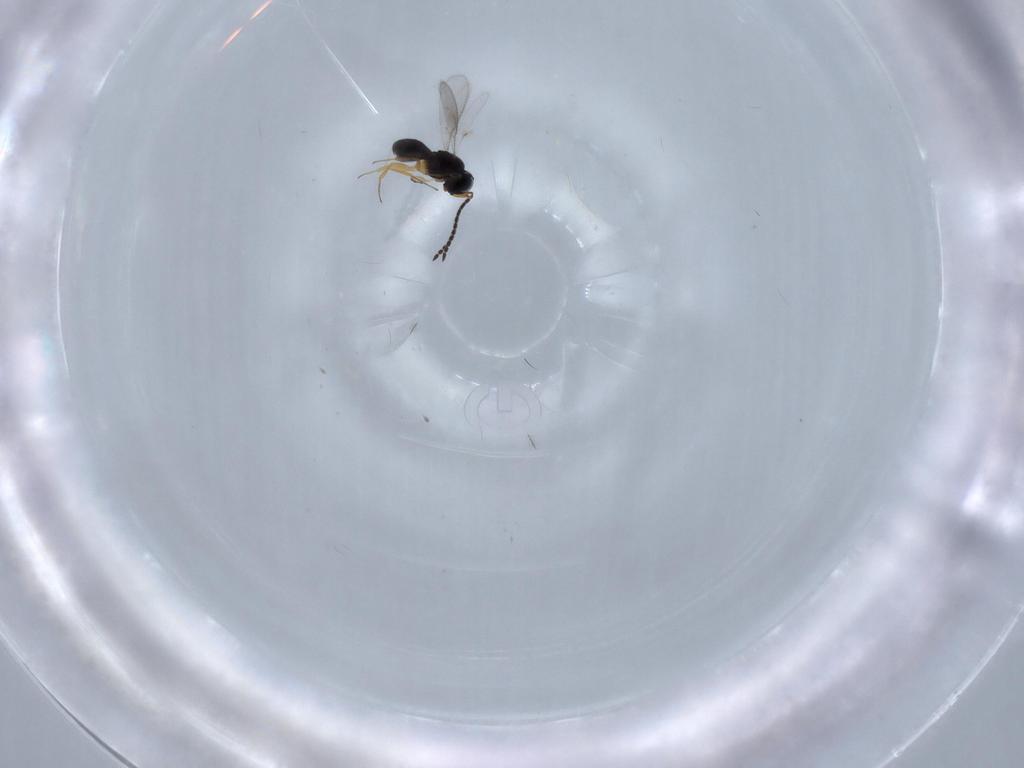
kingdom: Animalia
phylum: Arthropoda
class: Insecta
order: Hymenoptera
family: Scelionidae
